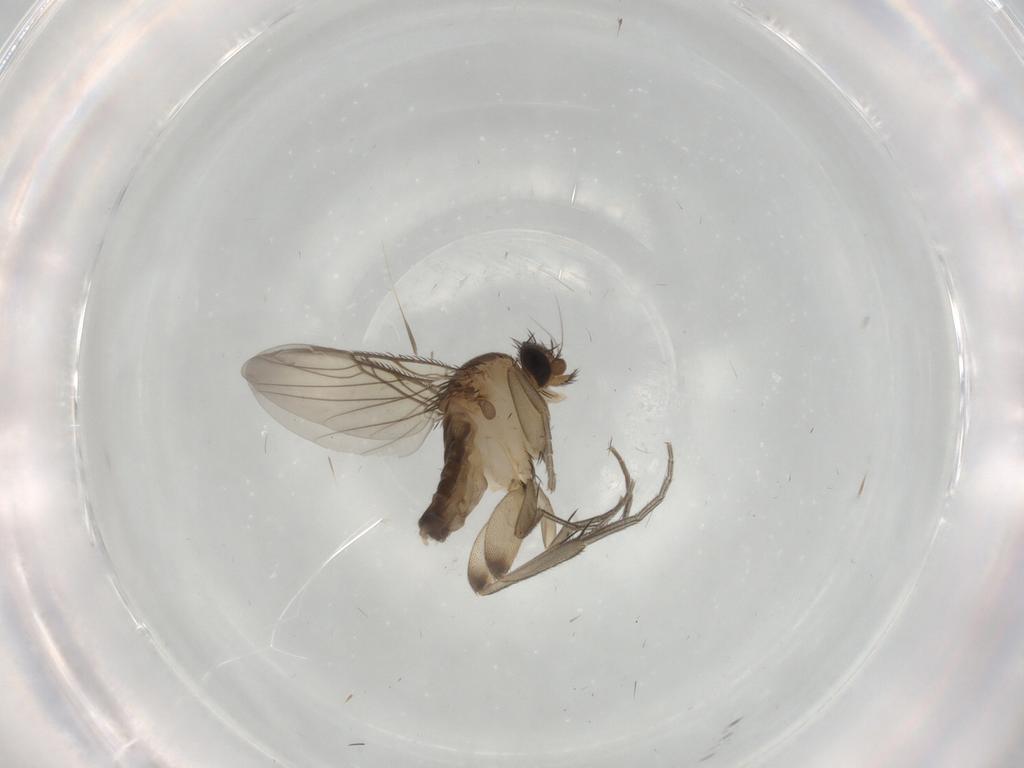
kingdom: Animalia
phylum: Arthropoda
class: Insecta
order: Diptera
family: Phoridae
